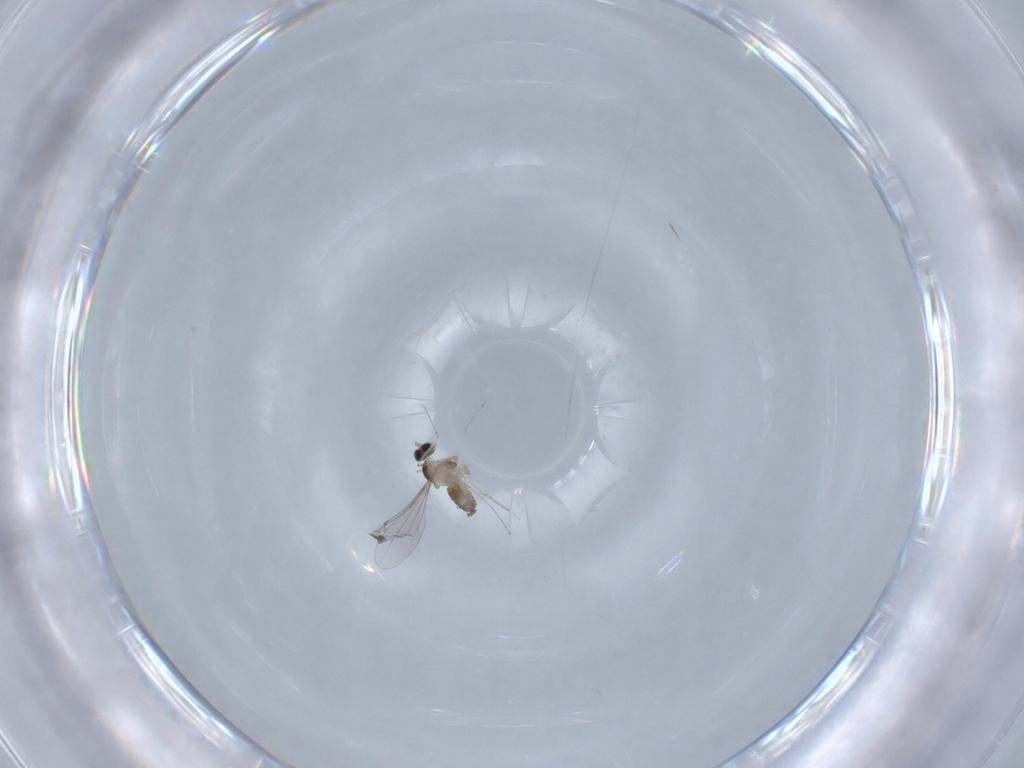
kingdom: Animalia
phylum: Arthropoda
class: Insecta
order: Diptera
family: Cecidomyiidae
